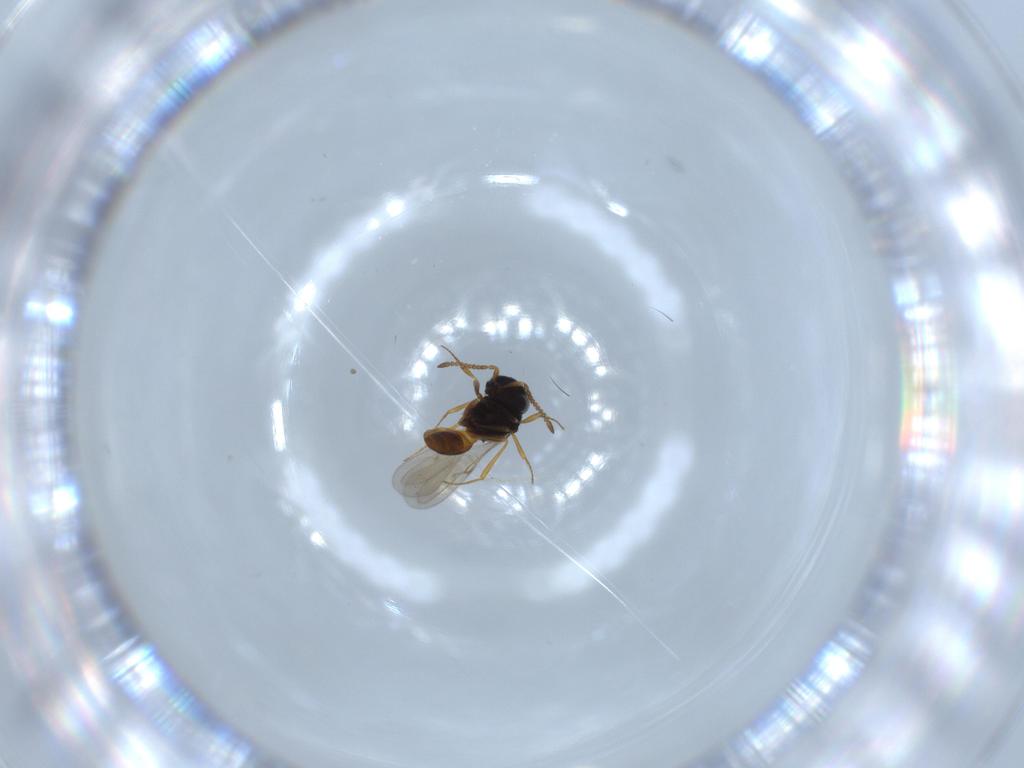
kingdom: Animalia
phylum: Arthropoda
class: Insecta
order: Hymenoptera
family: Scelionidae
